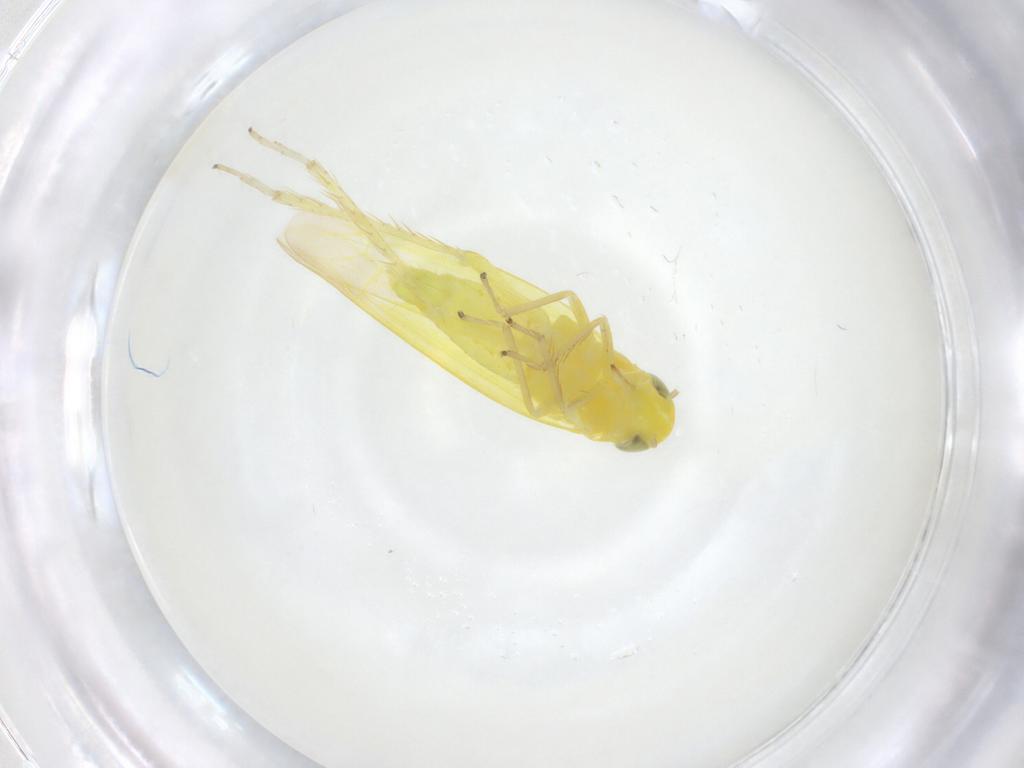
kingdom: Animalia
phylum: Arthropoda
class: Insecta
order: Hemiptera
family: Cicadellidae
